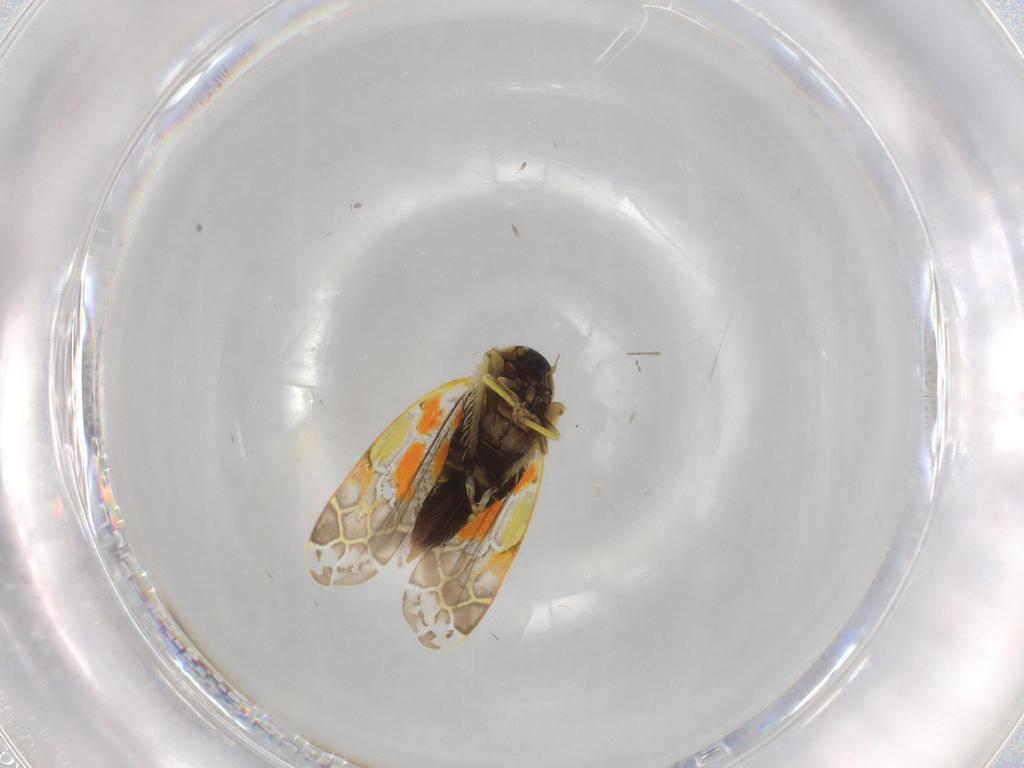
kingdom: Animalia
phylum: Arthropoda
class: Insecta
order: Hemiptera
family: Cicadellidae
